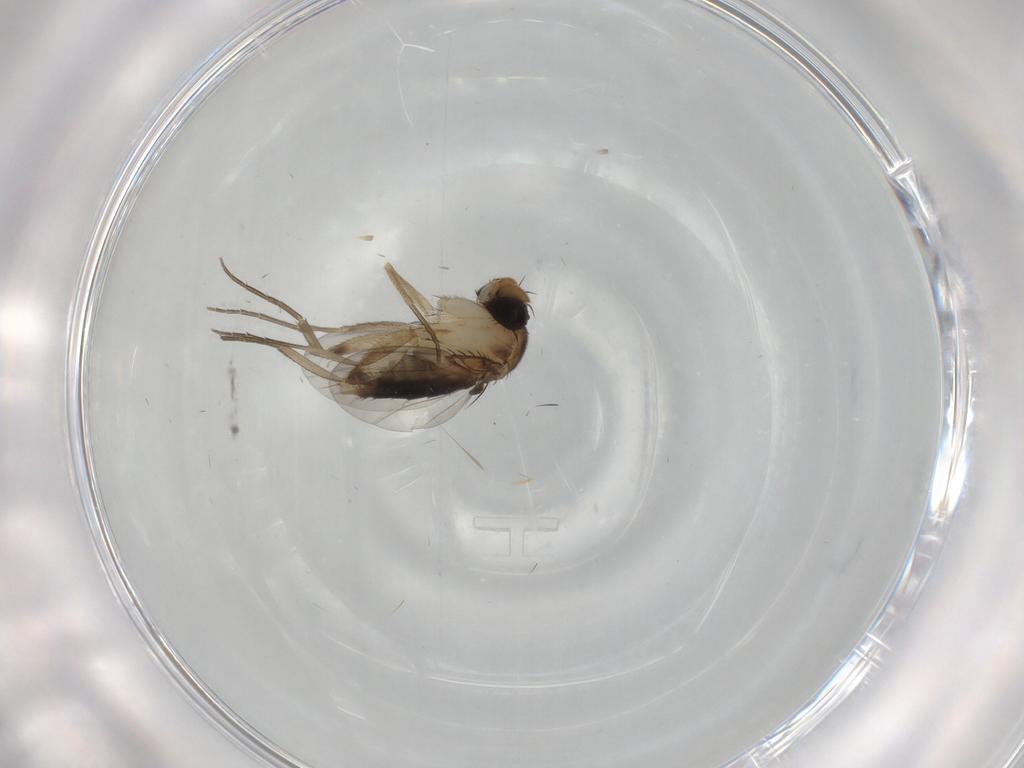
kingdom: Animalia
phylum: Arthropoda
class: Insecta
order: Diptera
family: Phoridae
